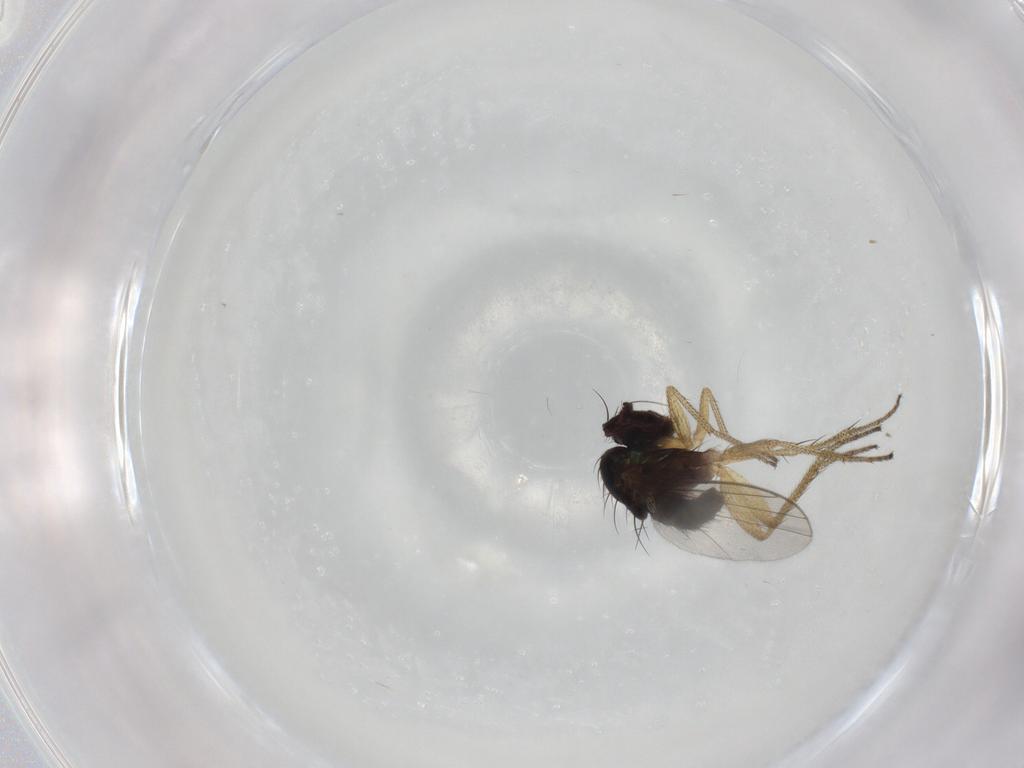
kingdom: Animalia
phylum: Arthropoda
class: Insecta
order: Diptera
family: Dolichopodidae
